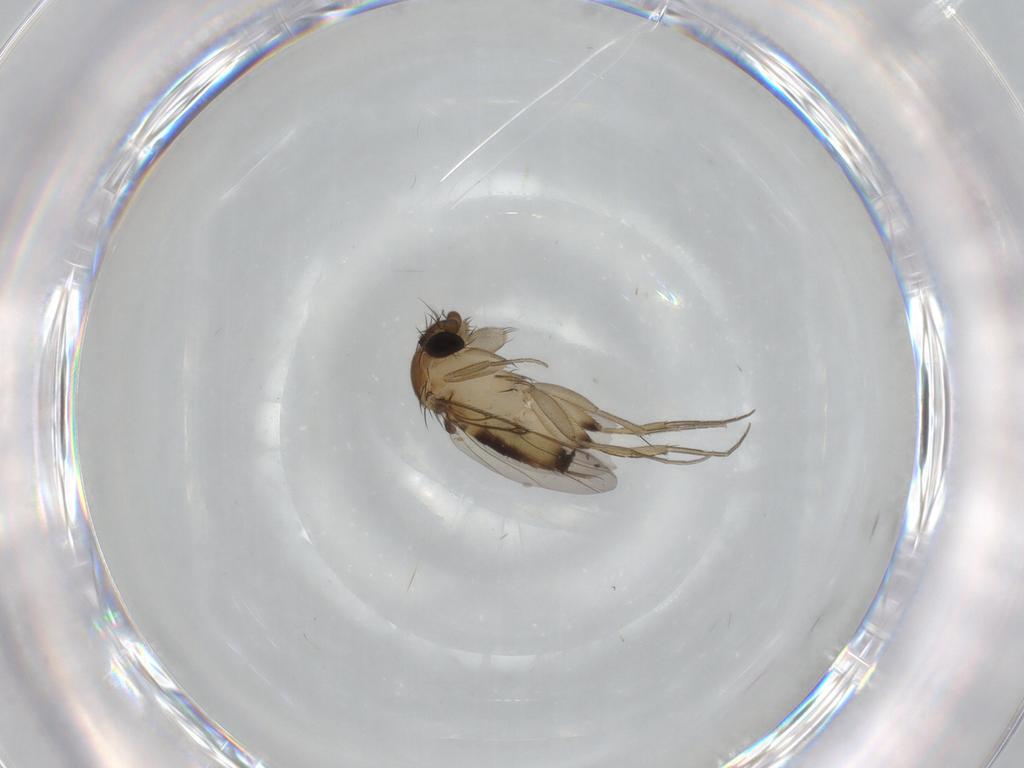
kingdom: Animalia
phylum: Arthropoda
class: Insecta
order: Diptera
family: Phoridae
